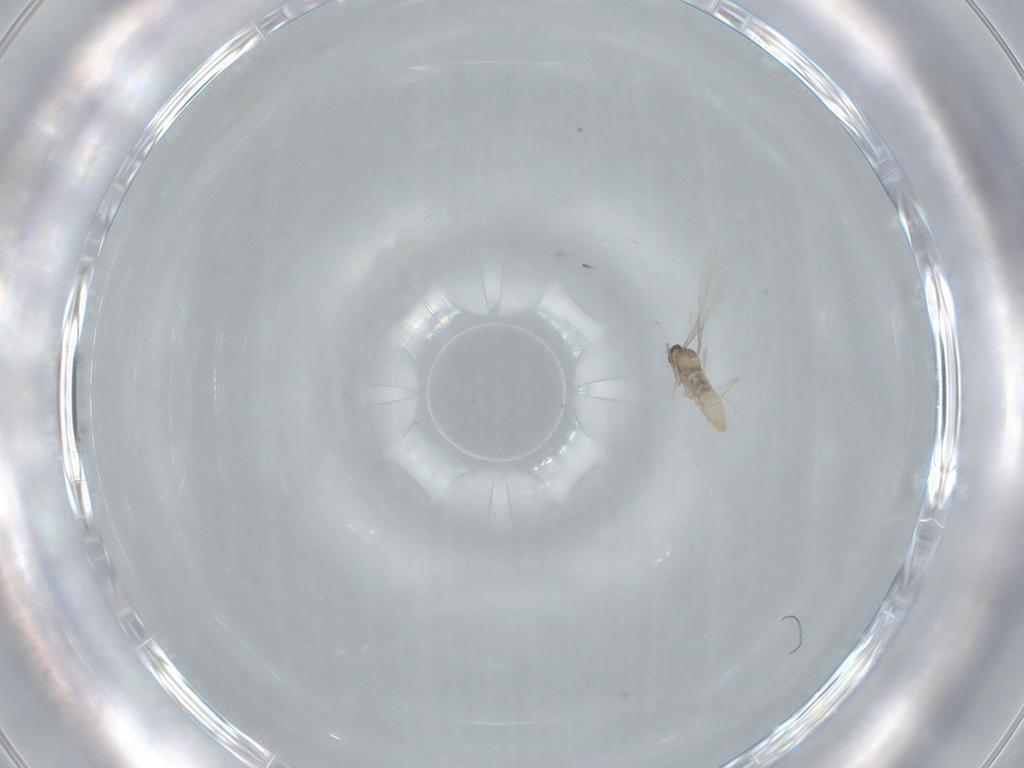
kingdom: Animalia
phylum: Arthropoda
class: Insecta
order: Diptera
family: Cecidomyiidae
